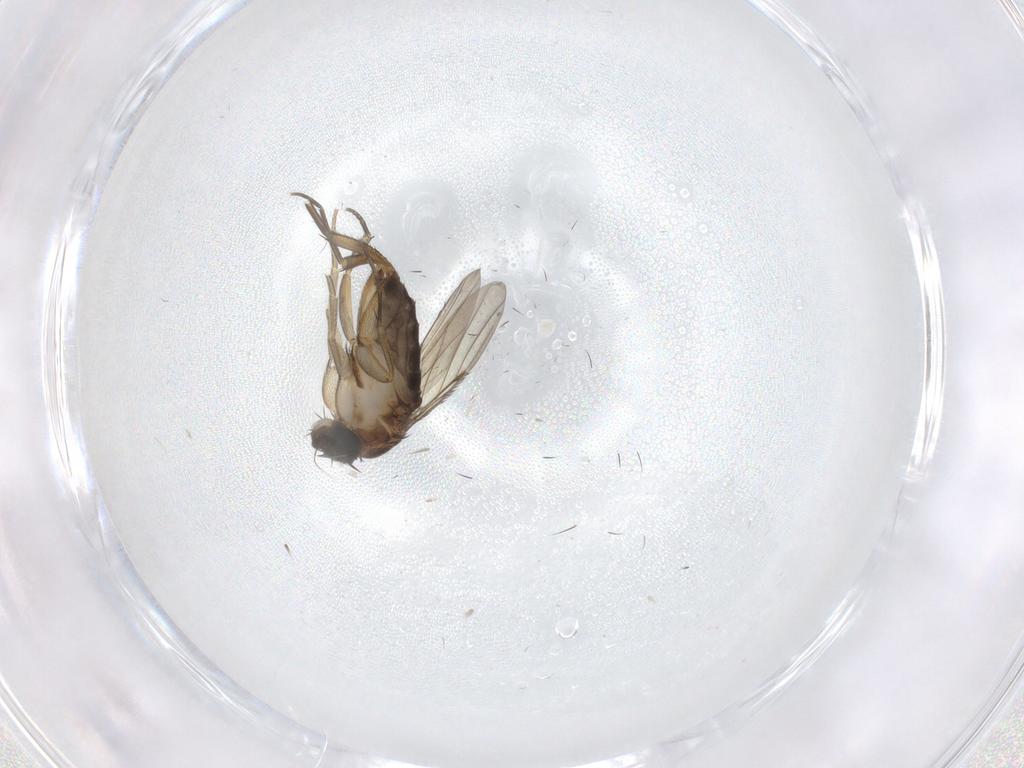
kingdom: Animalia
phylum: Arthropoda
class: Insecta
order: Diptera
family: Phoridae
